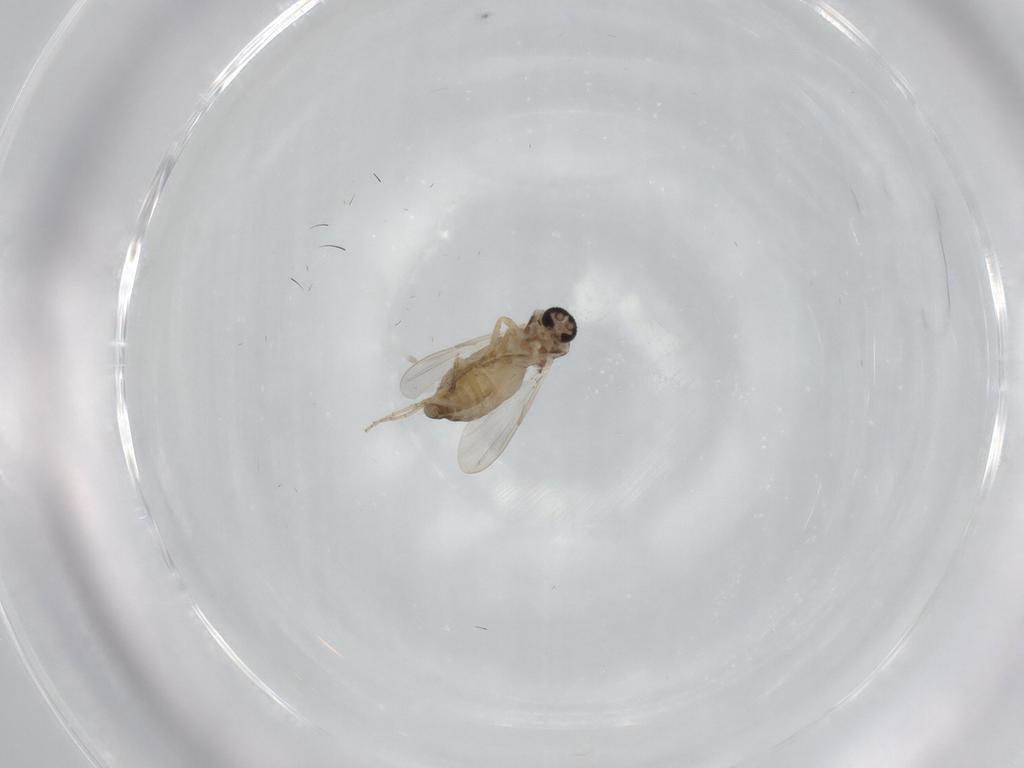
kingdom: Animalia
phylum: Arthropoda
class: Insecta
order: Diptera
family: Ceratopogonidae
